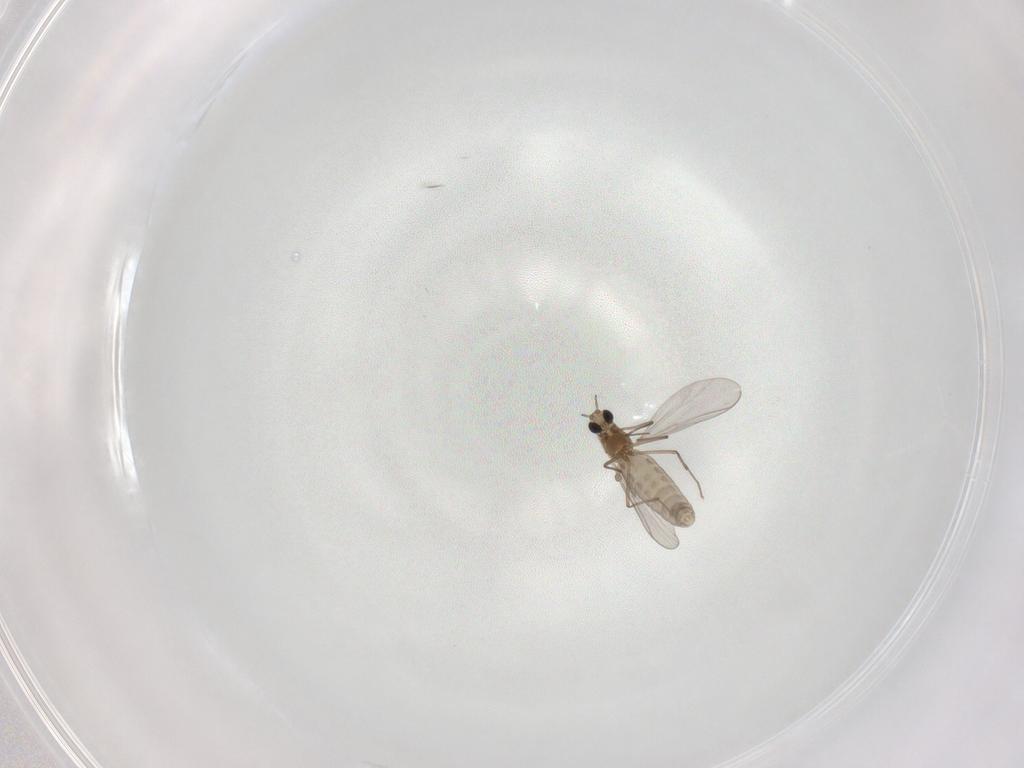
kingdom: Animalia
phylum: Arthropoda
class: Insecta
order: Diptera
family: Chironomidae
